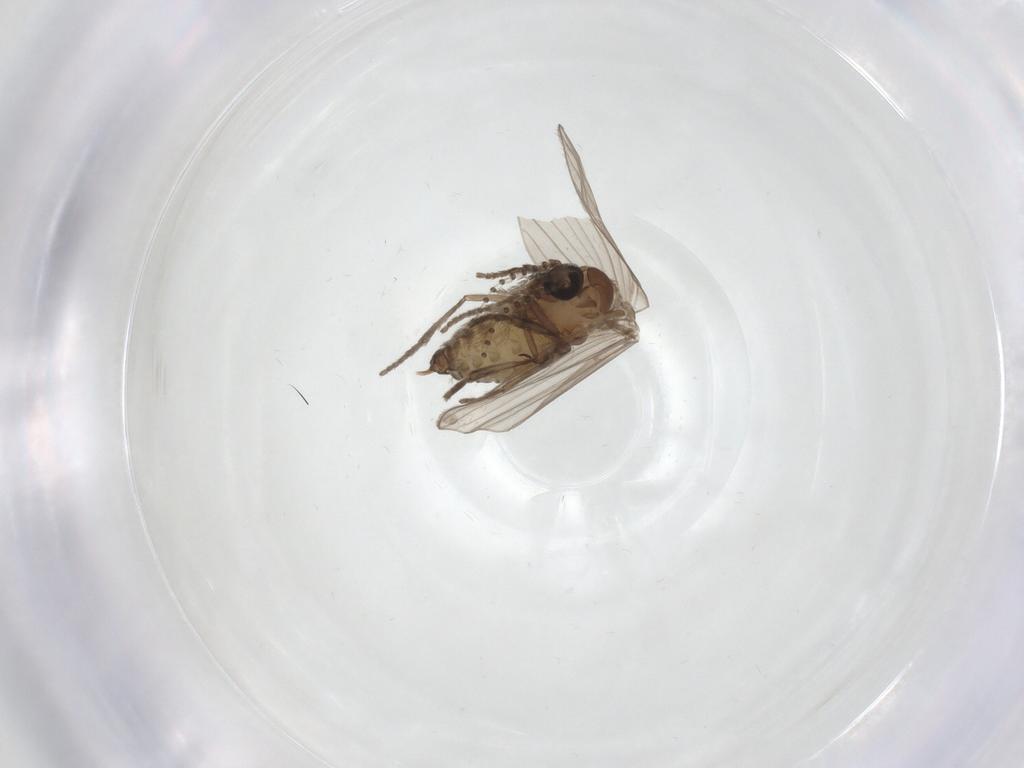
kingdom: Animalia
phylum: Arthropoda
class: Insecta
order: Diptera
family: Psychodidae
